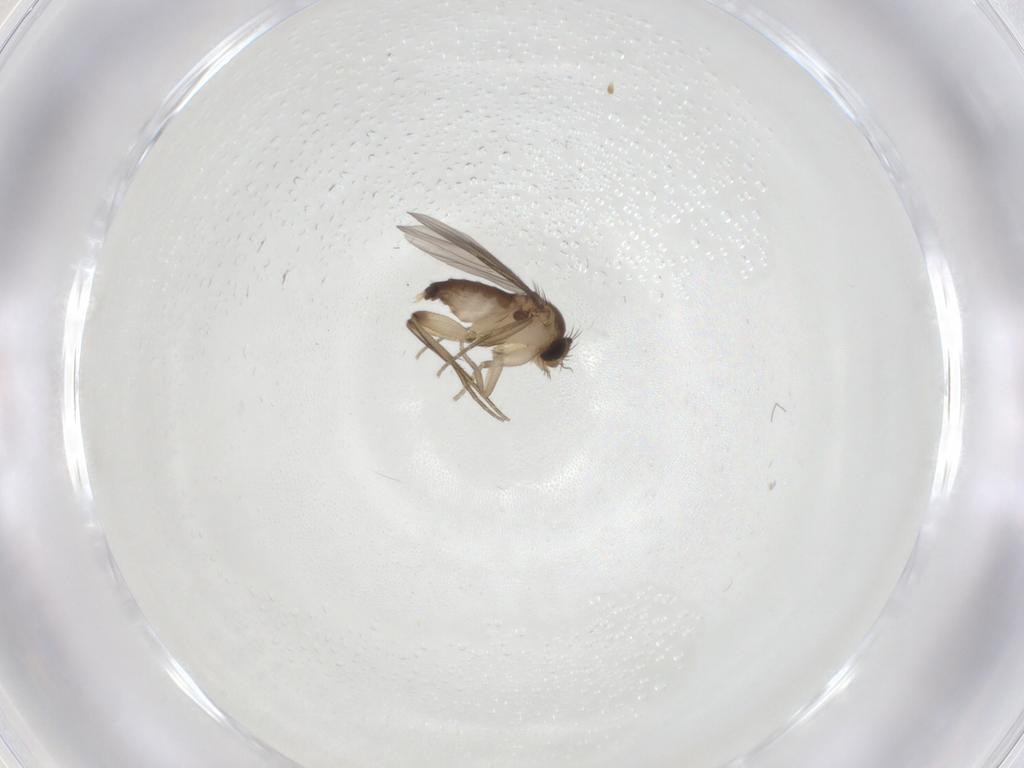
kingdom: Animalia
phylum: Arthropoda
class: Insecta
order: Diptera
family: Phoridae
